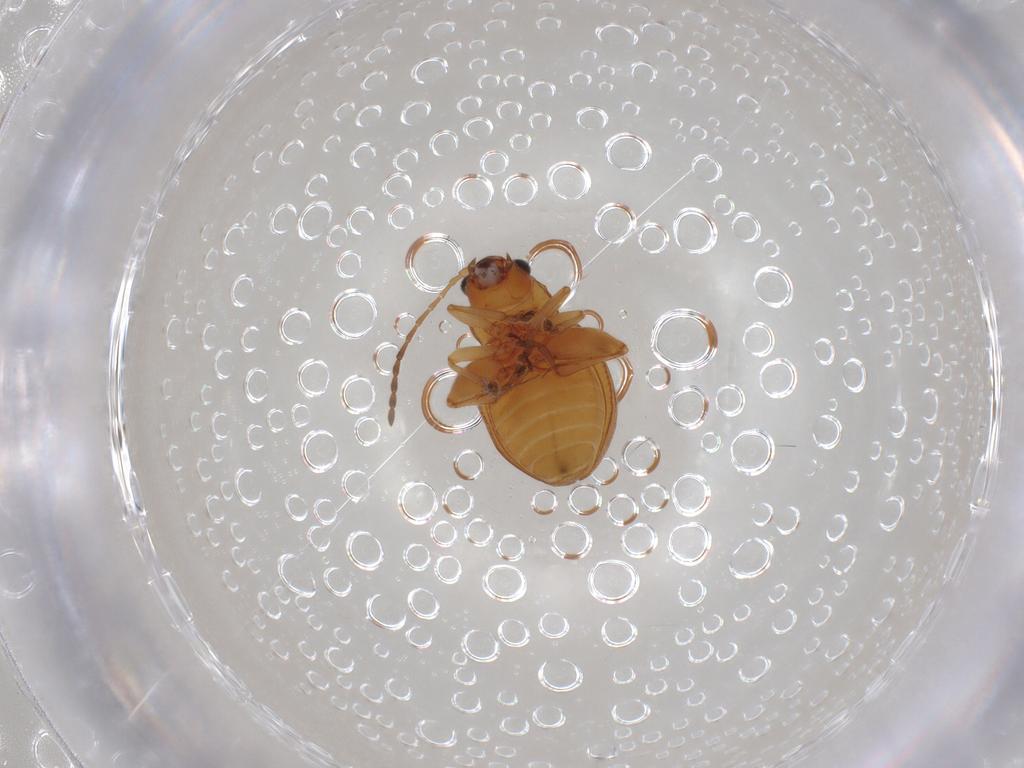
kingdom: Animalia
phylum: Arthropoda
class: Insecta
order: Coleoptera
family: Chrysomelidae
